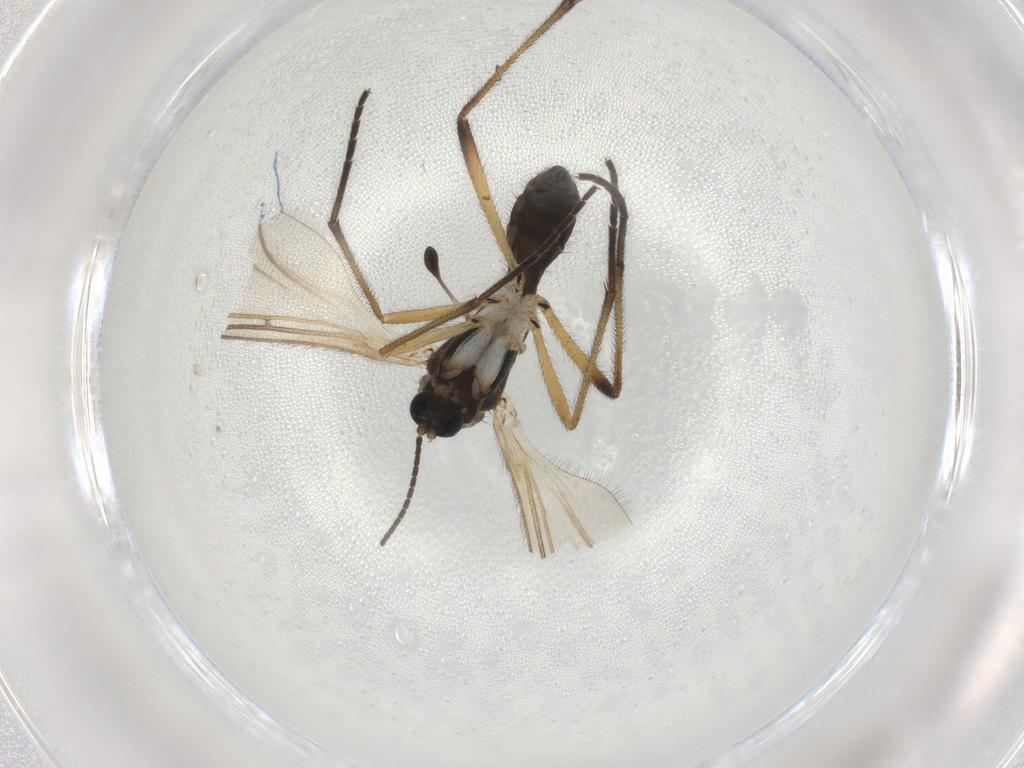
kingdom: Animalia
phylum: Arthropoda
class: Insecta
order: Diptera
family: Sciaridae
